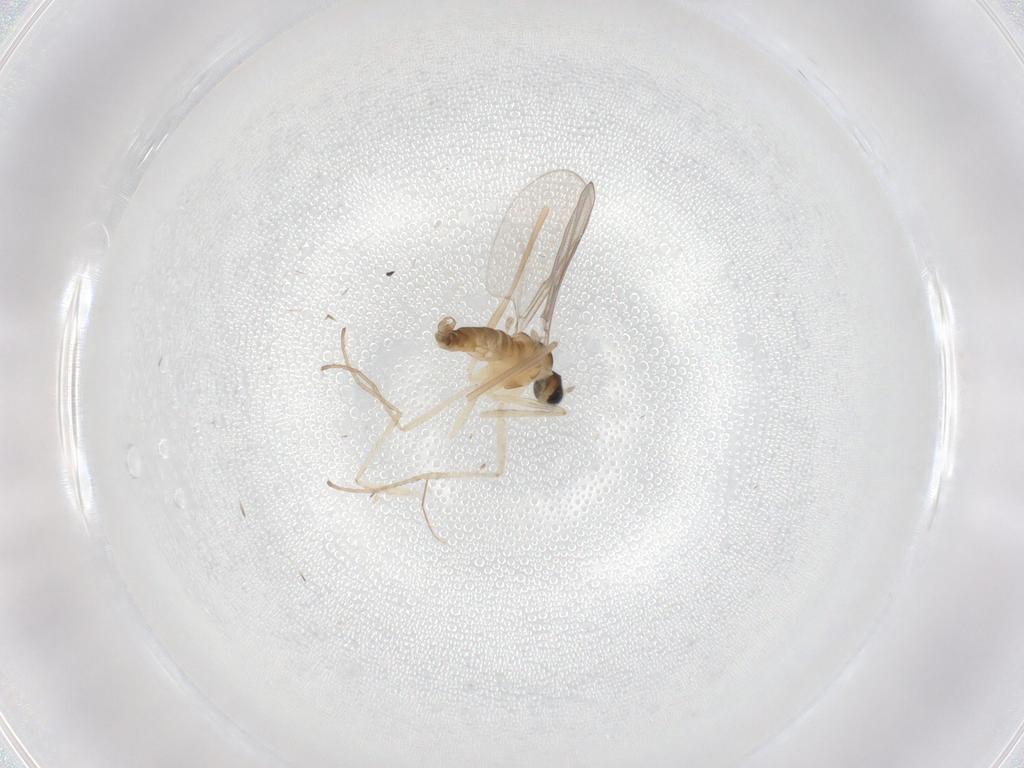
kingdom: Animalia
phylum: Arthropoda
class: Insecta
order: Diptera
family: Cecidomyiidae
